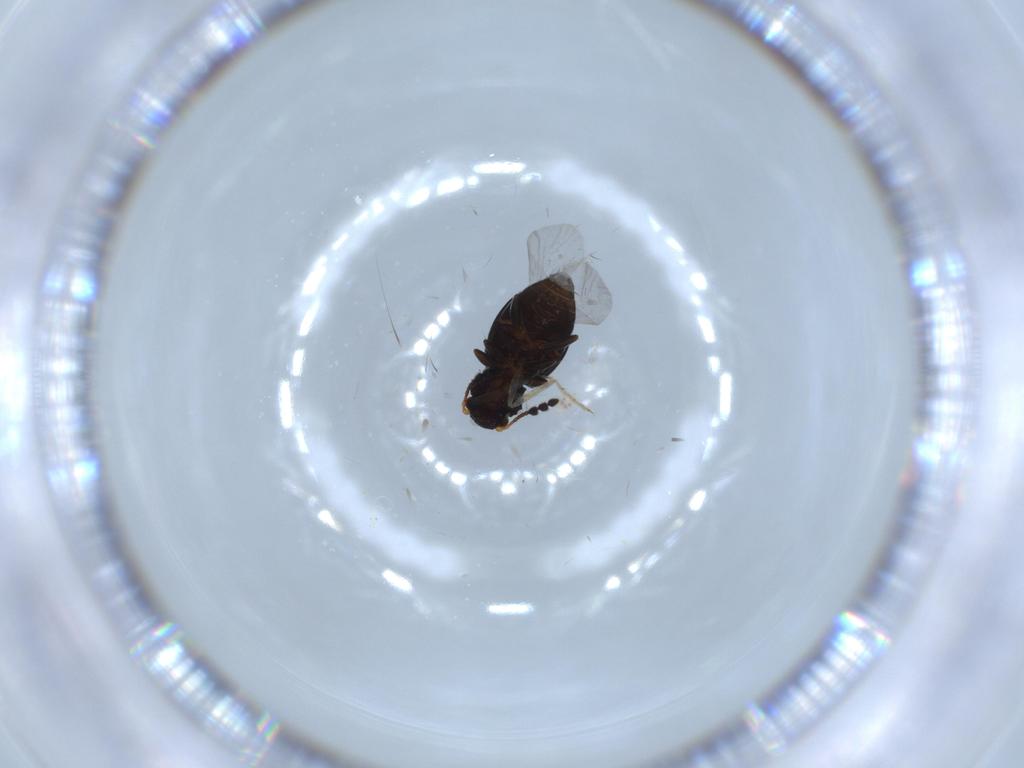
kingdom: Animalia
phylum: Arthropoda
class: Insecta
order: Coleoptera
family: Salpingidae
